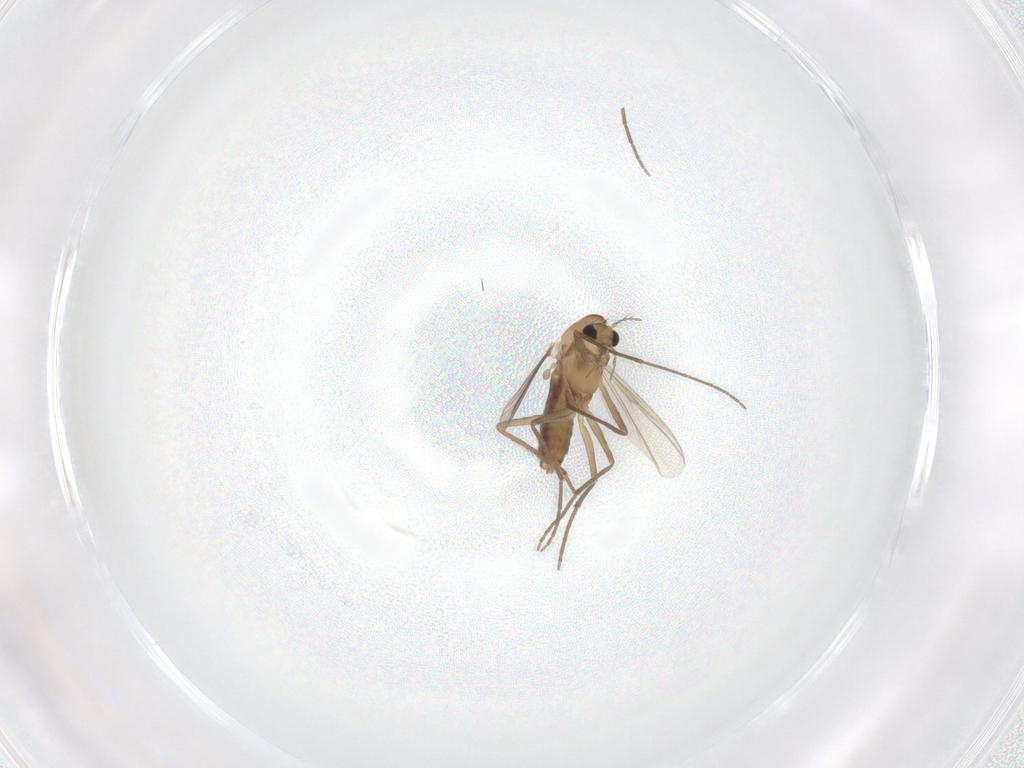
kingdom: Animalia
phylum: Arthropoda
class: Insecta
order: Diptera
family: Chironomidae
